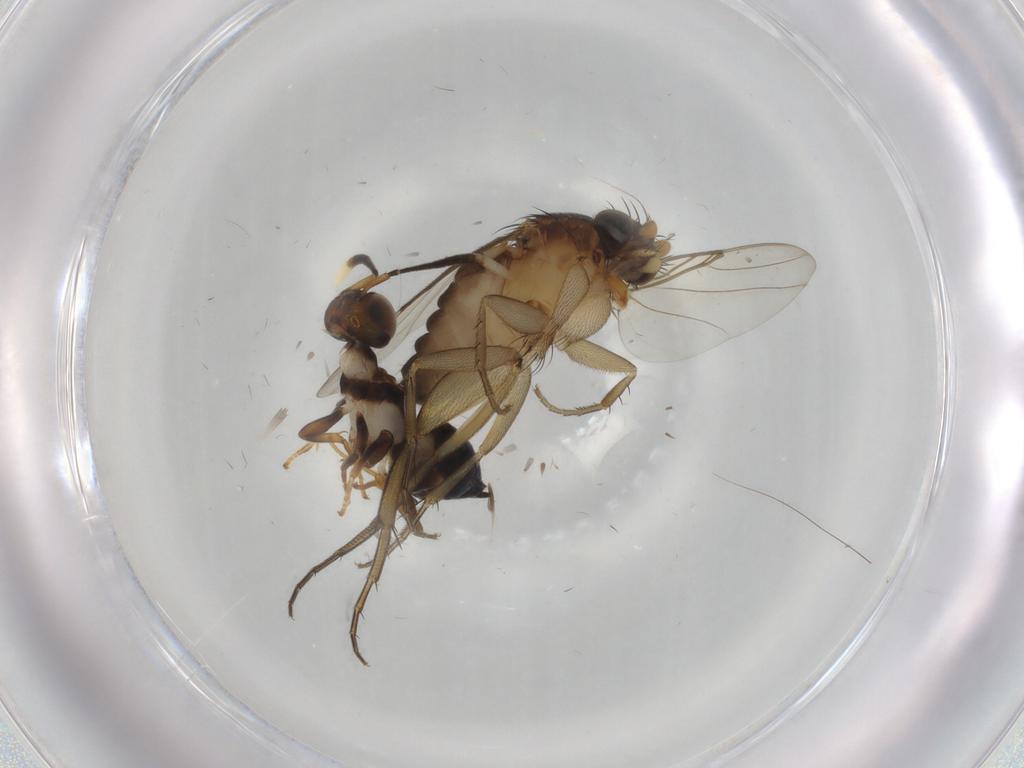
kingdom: Animalia
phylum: Arthropoda
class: Insecta
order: Diptera
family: Phoridae
